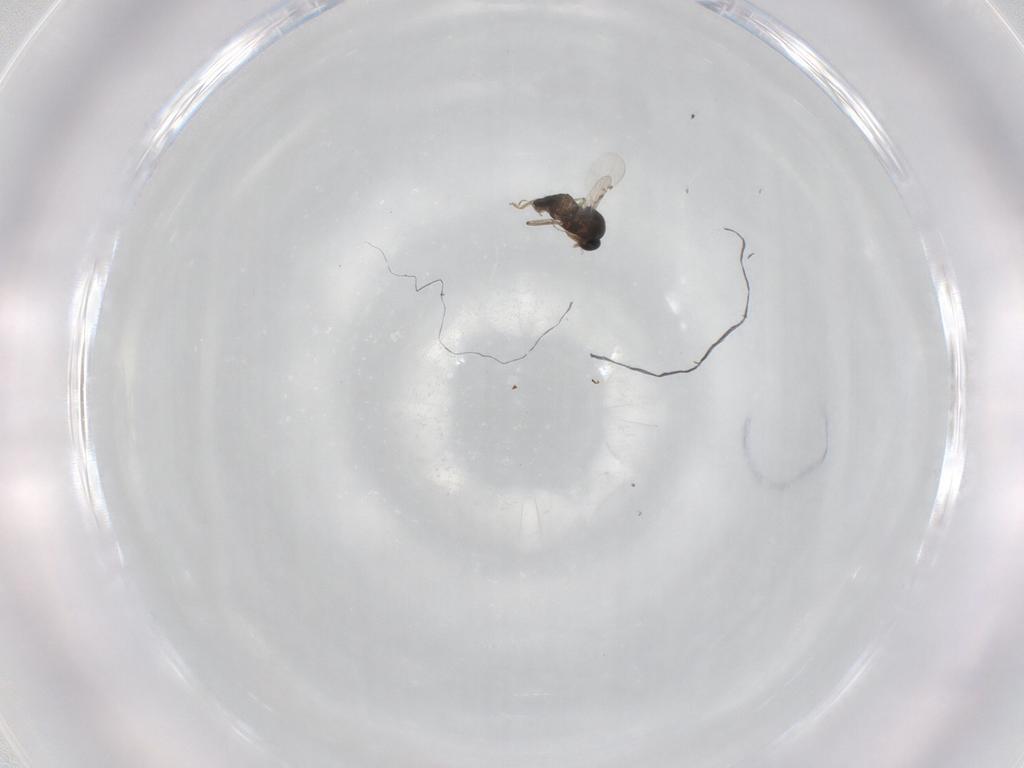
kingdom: Animalia
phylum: Arthropoda
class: Insecta
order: Diptera
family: Ceratopogonidae
